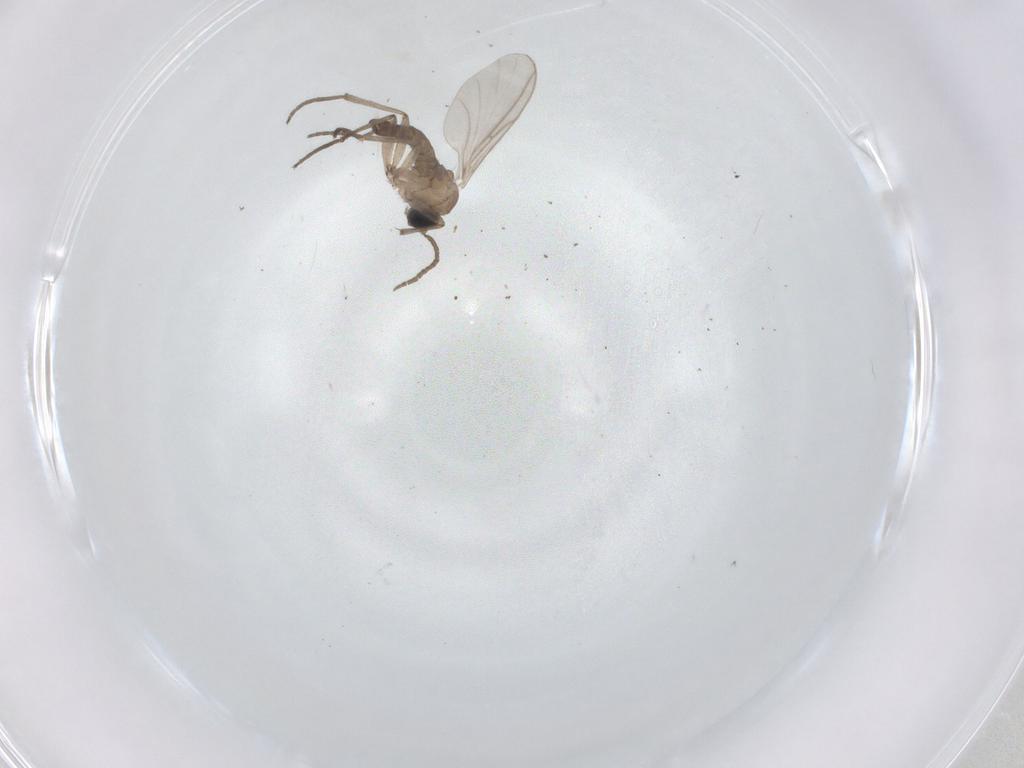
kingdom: Animalia
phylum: Arthropoda
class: Insecta
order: Diptera
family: Sciaridae
